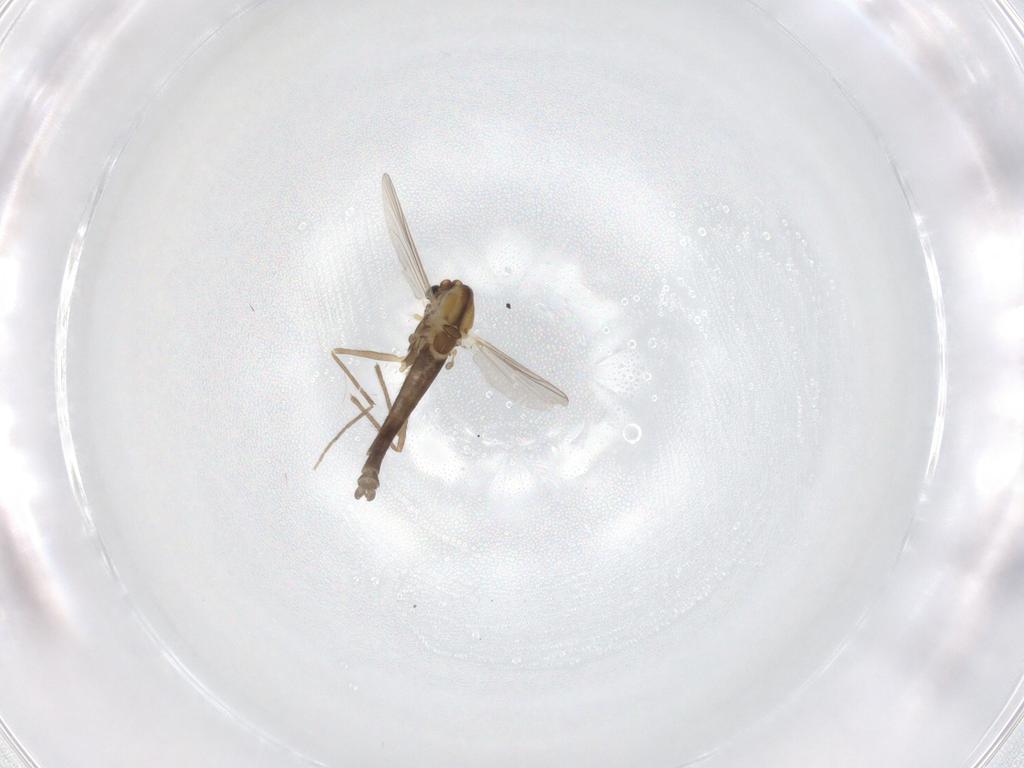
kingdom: Animalia
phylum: Arthropoda
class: Insecta
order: Diptera
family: Chironomidae
